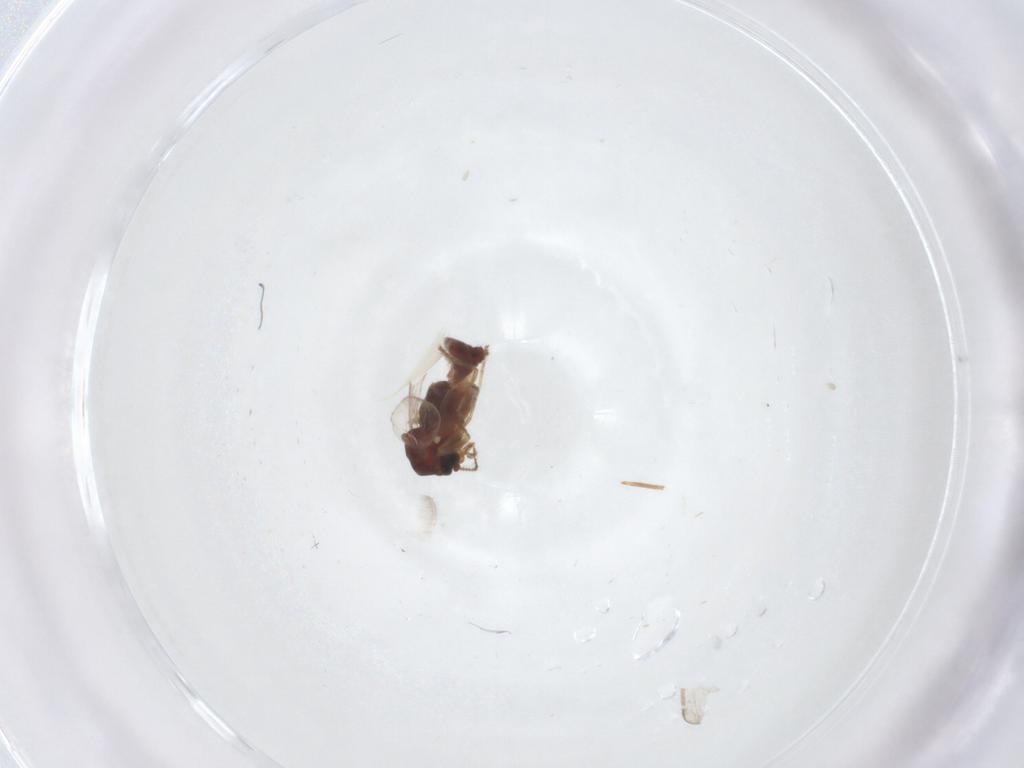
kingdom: Animalia
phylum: Arthropoda
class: Insecta
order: Diptera
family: Ceratopogonidae
